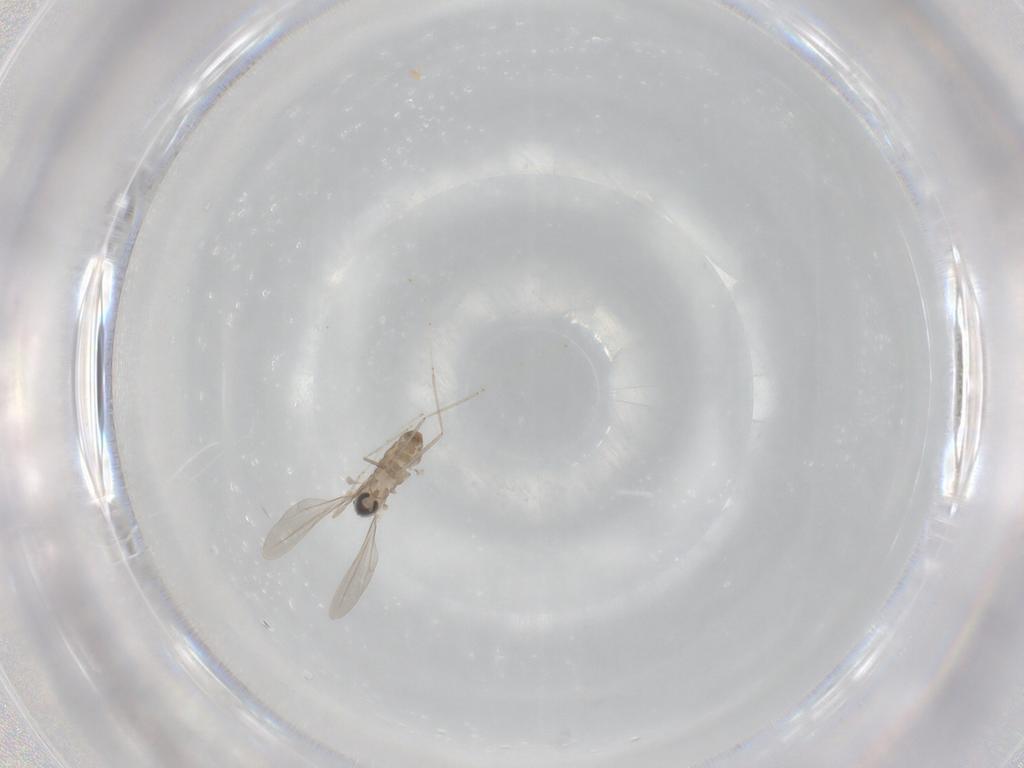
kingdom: Animalia
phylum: Arthropoda
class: Insecta
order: Diptera
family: Cecidomyiidae
